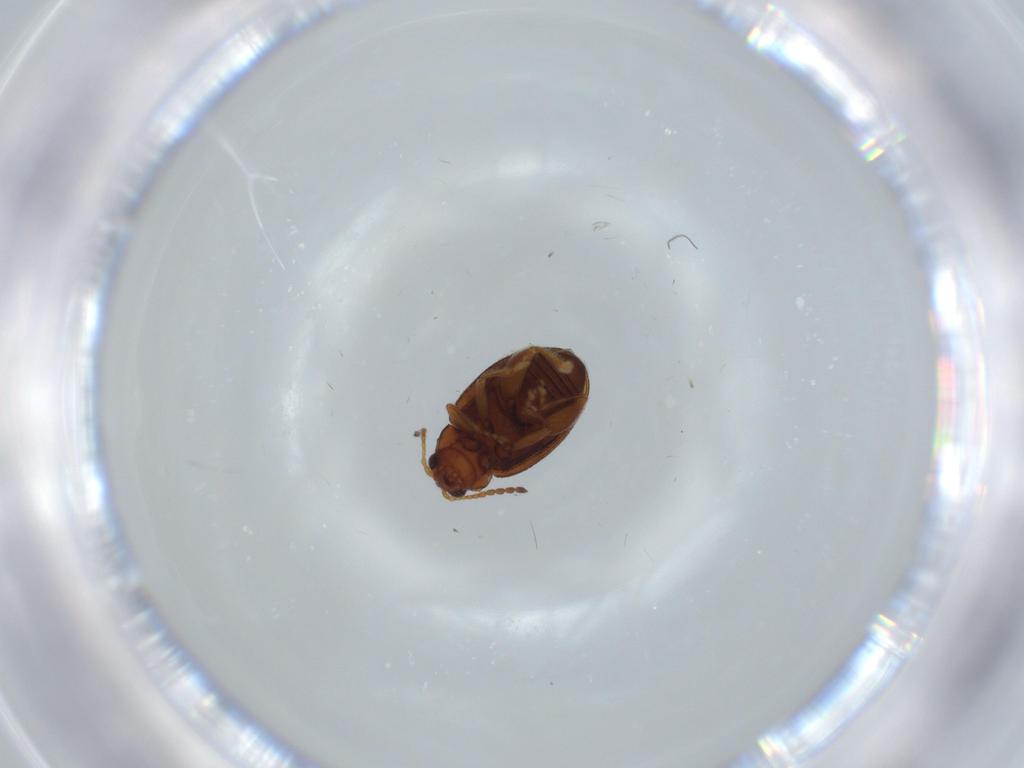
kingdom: Animalia
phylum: Arthropoda
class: Insecta
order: Coleoptera
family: Chrysomelidae
